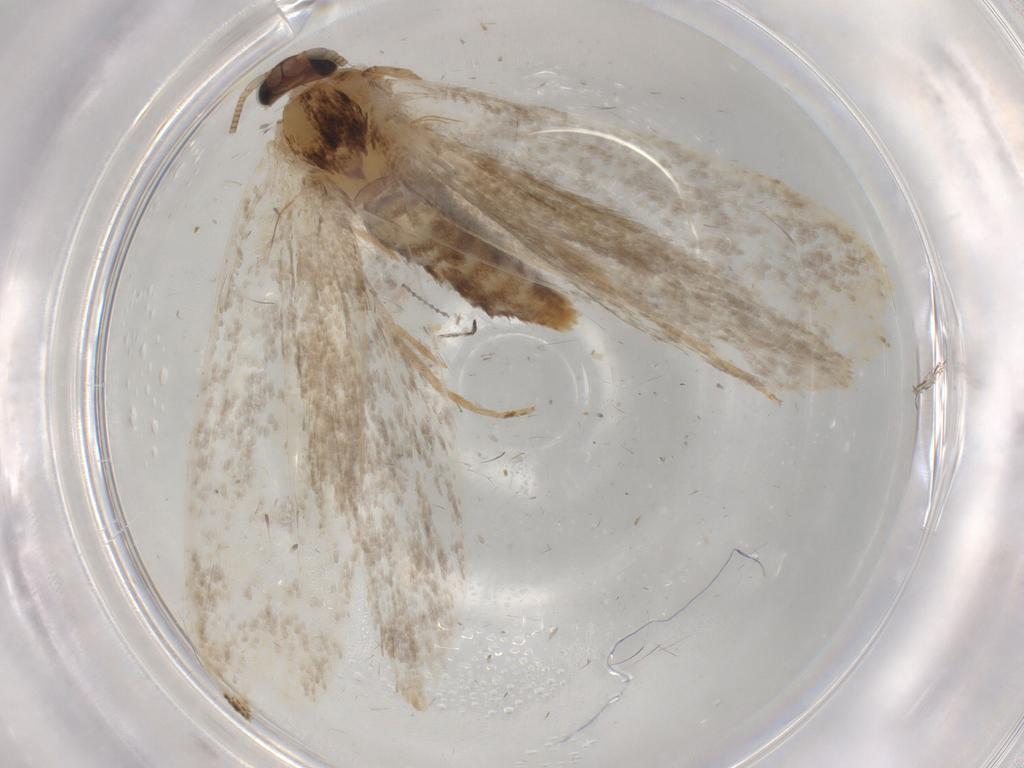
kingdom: Animalia
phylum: Arthropoda
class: Insecta
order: Lepidoptera
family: Tineidae
